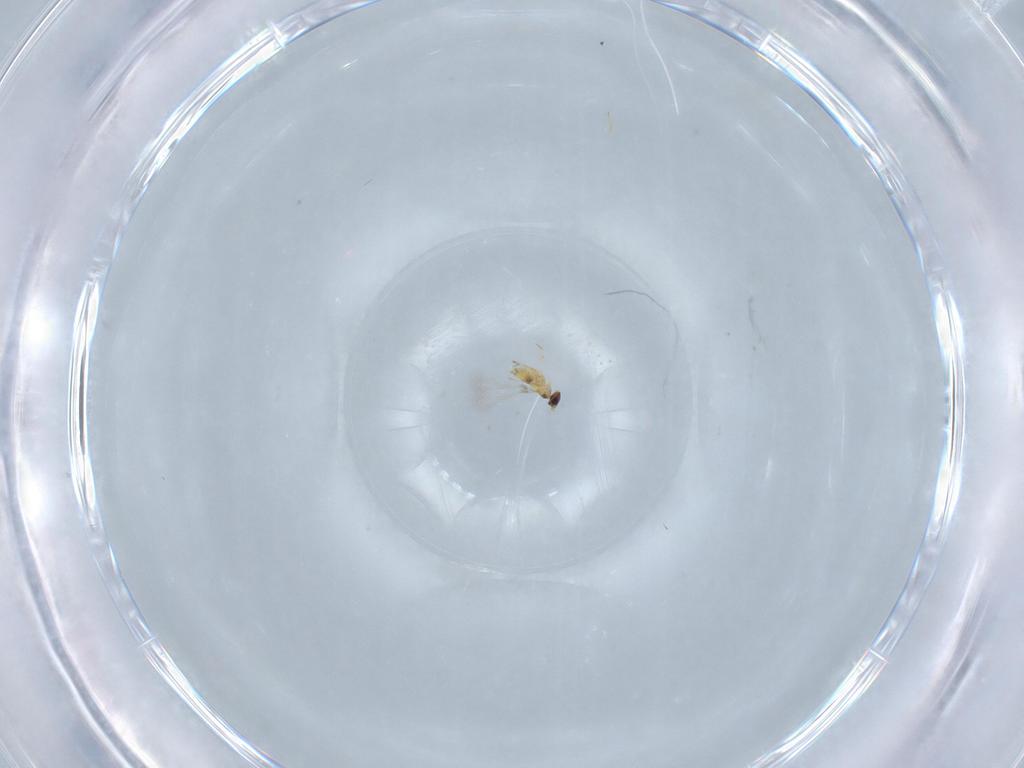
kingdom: Animalia
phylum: Arthropoda
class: Insecta
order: Hymenoptera
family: Mymaridae
